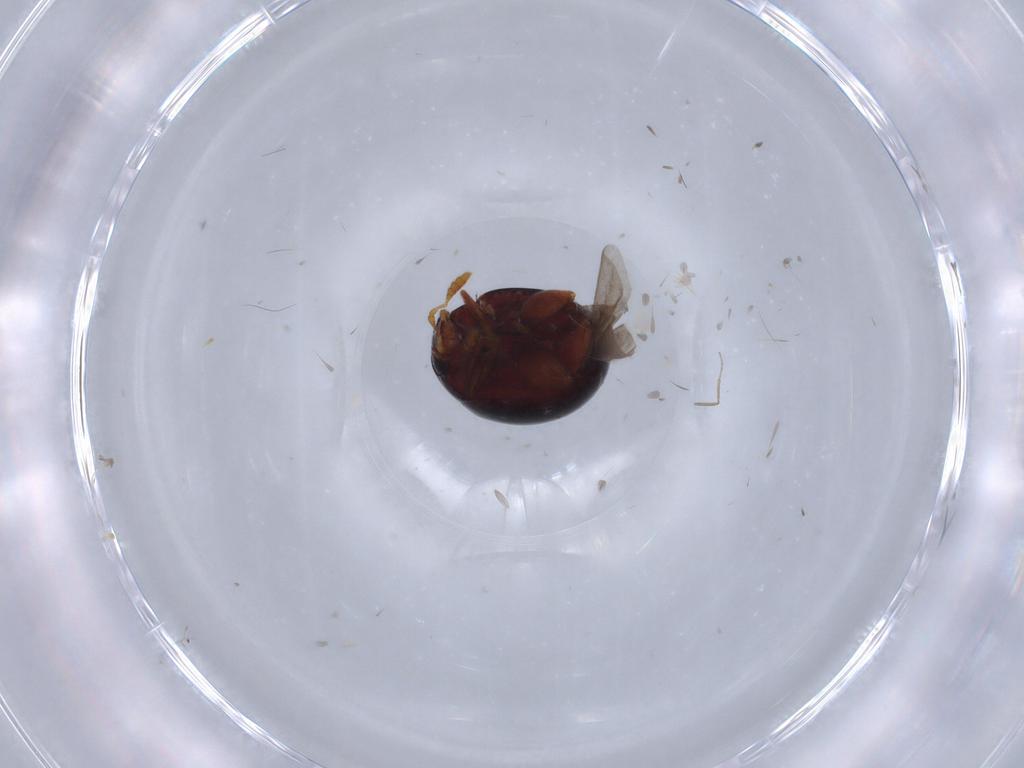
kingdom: Animalia
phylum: Arthropoda
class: Insecta
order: Coleoptera
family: Chrysomelidae
